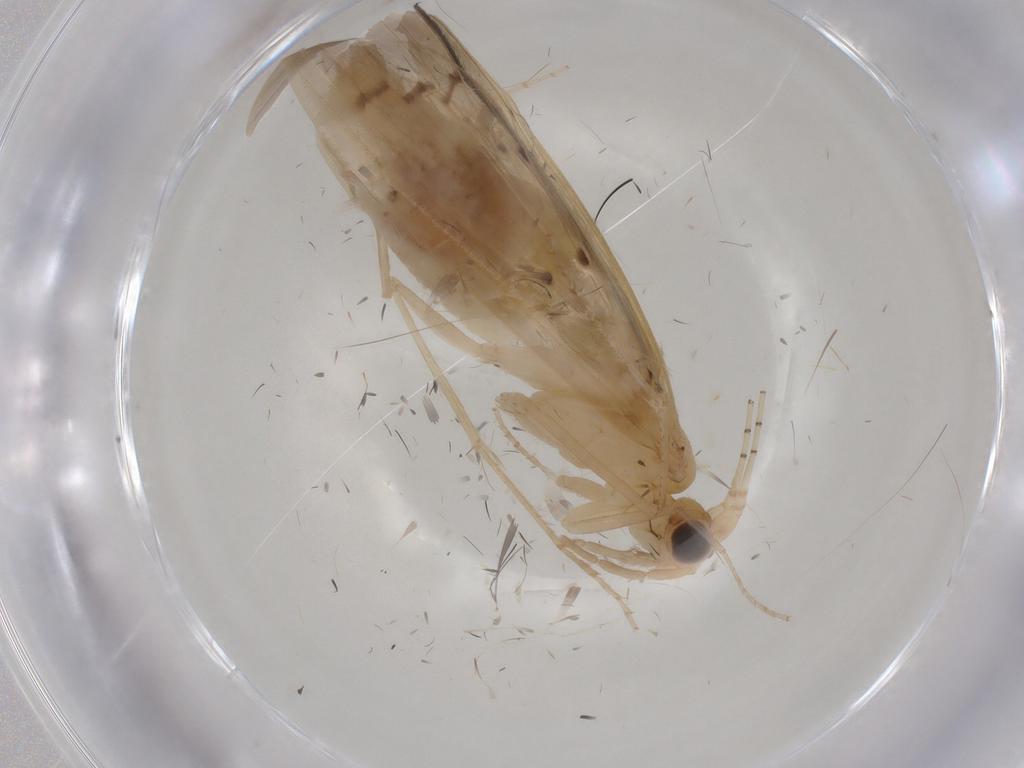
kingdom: Animalia
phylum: Arthropoda
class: Insecta
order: Trichoptera
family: Leptoceridae
